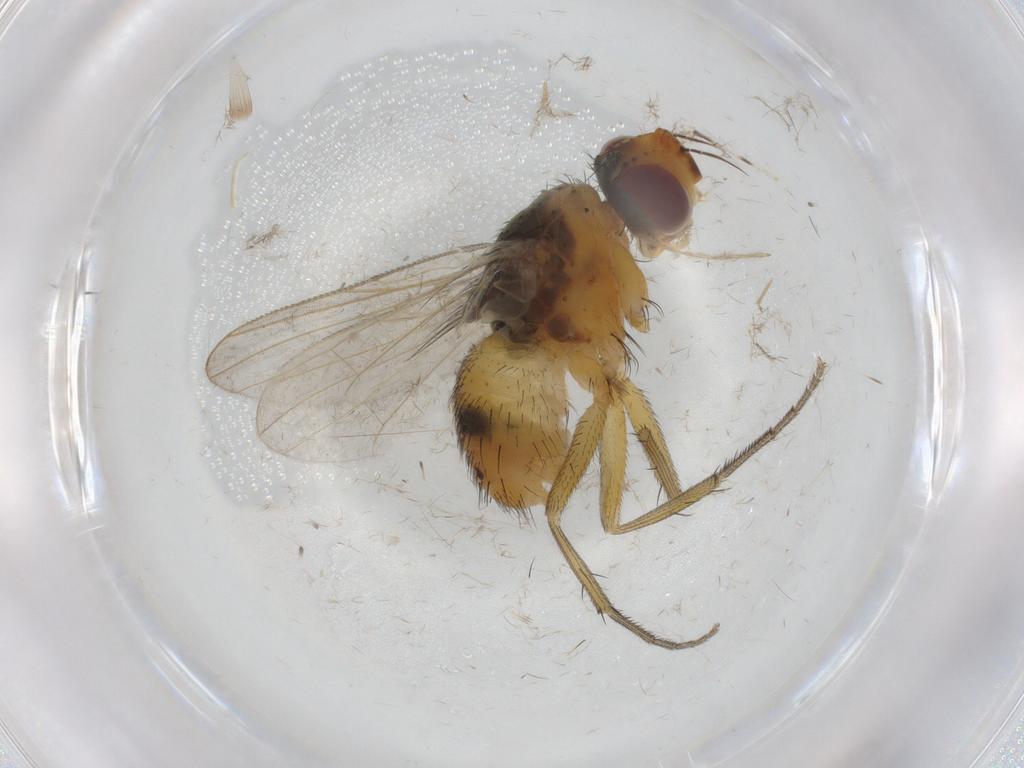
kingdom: Animalia
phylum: Arthropoda
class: Insecta
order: Diptera
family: Muscidae
